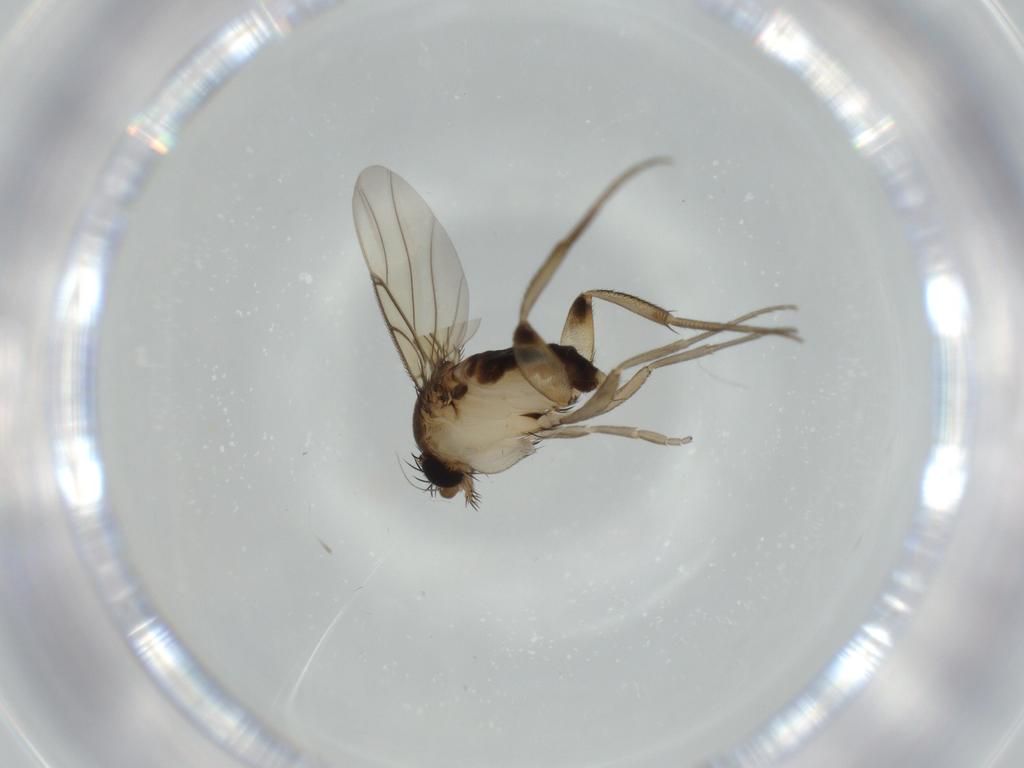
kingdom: Animalia
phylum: Arthropoda
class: Insecta
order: Diptera
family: Phoridae
